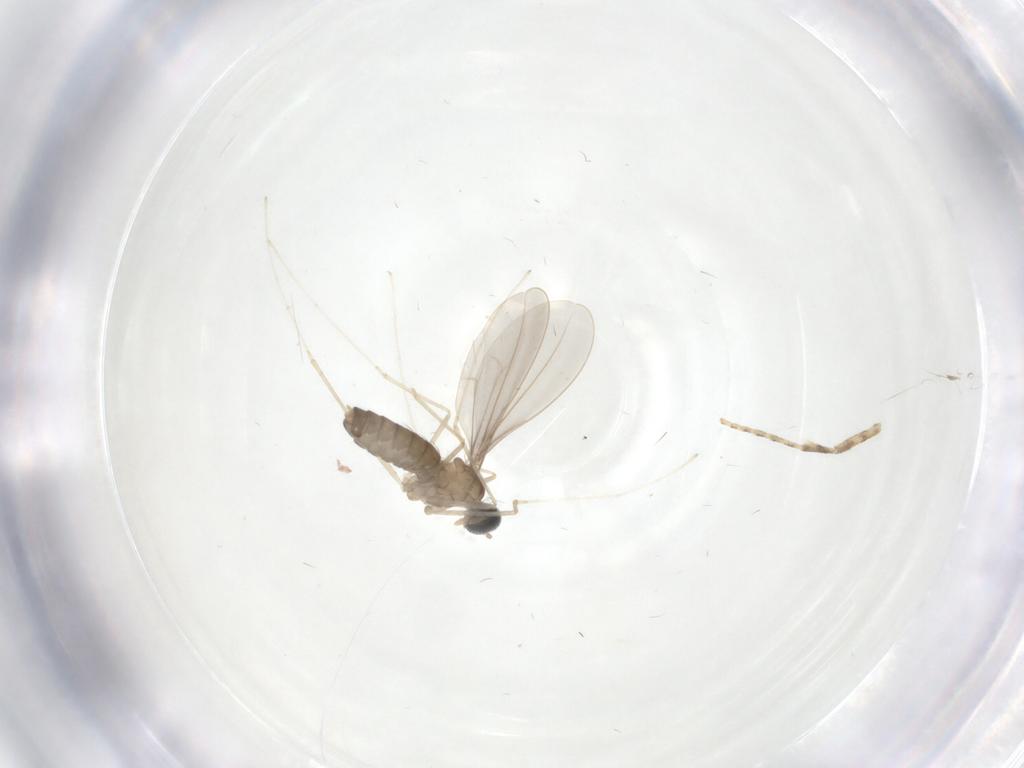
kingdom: Animalia
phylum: Arthropoda
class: Insecta
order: Diptera
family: Cecidomyiidae
